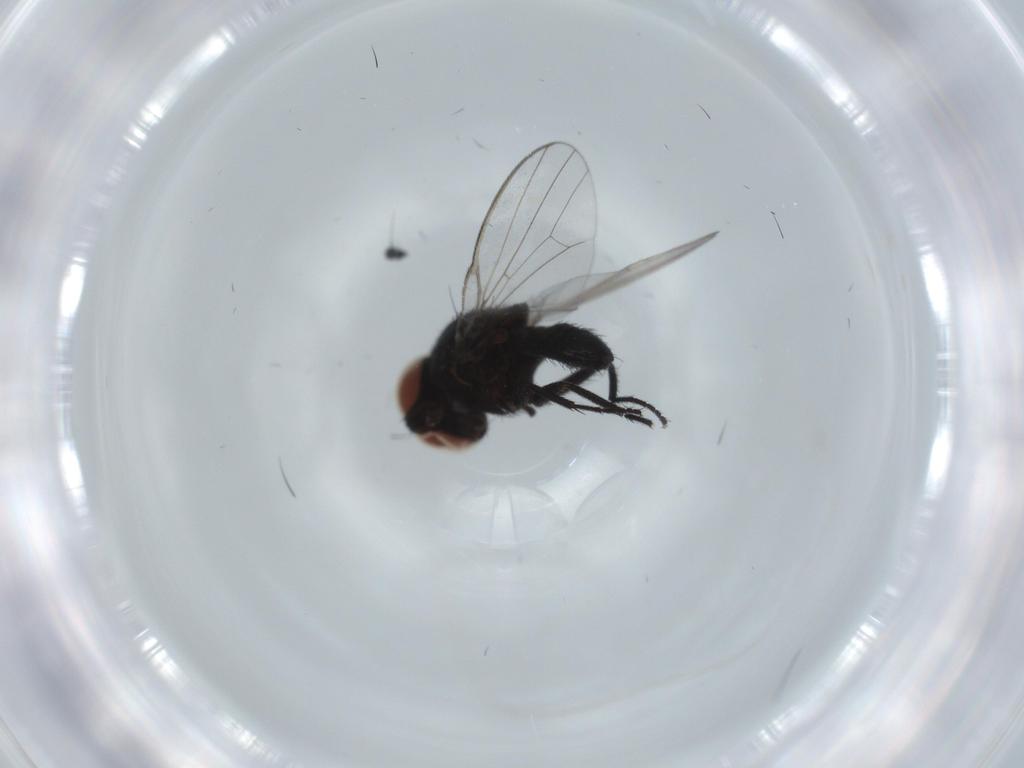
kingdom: Animalia
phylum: Arthropoda
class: Insecta
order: Diptera
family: Milichiidae
